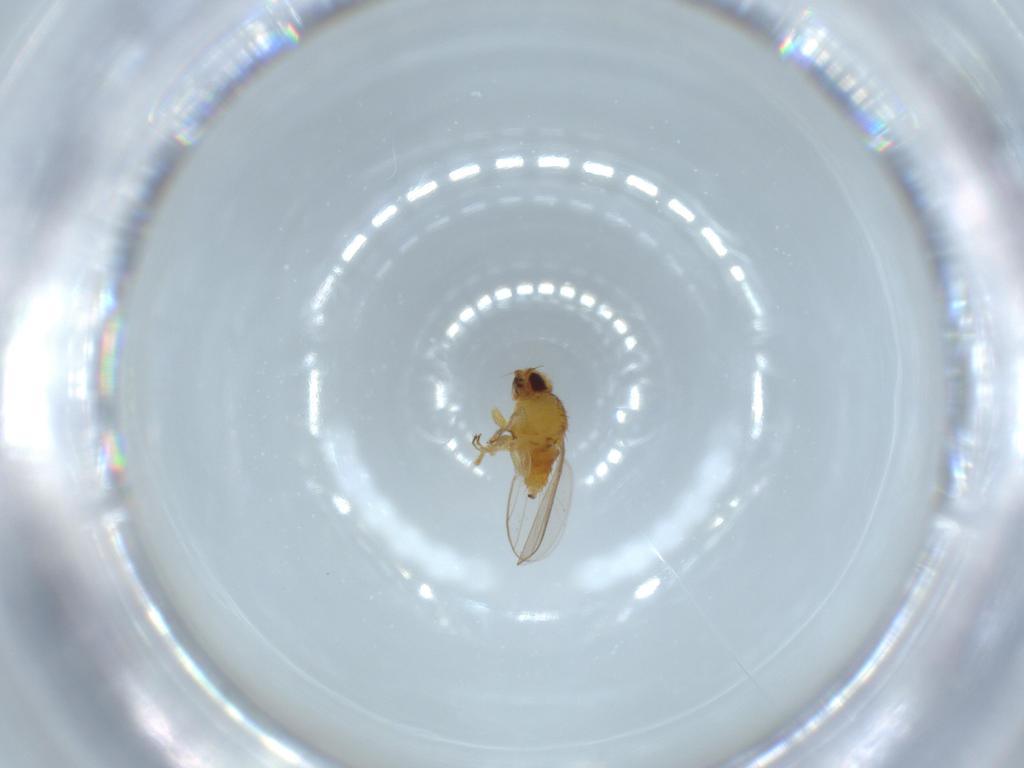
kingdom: Animalia
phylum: Arthropoda
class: Insecta
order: Diptera
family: Chloropidae
